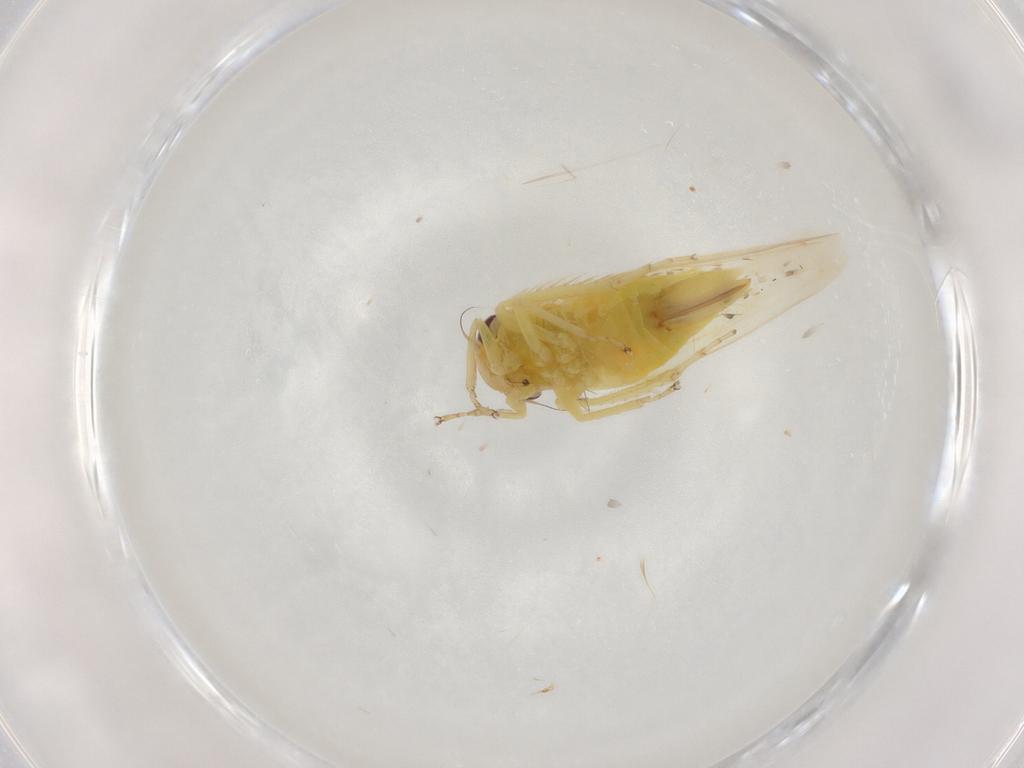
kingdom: Animalia
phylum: Arthropoda
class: Insecta
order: Hemiptera
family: Cicadellidae
